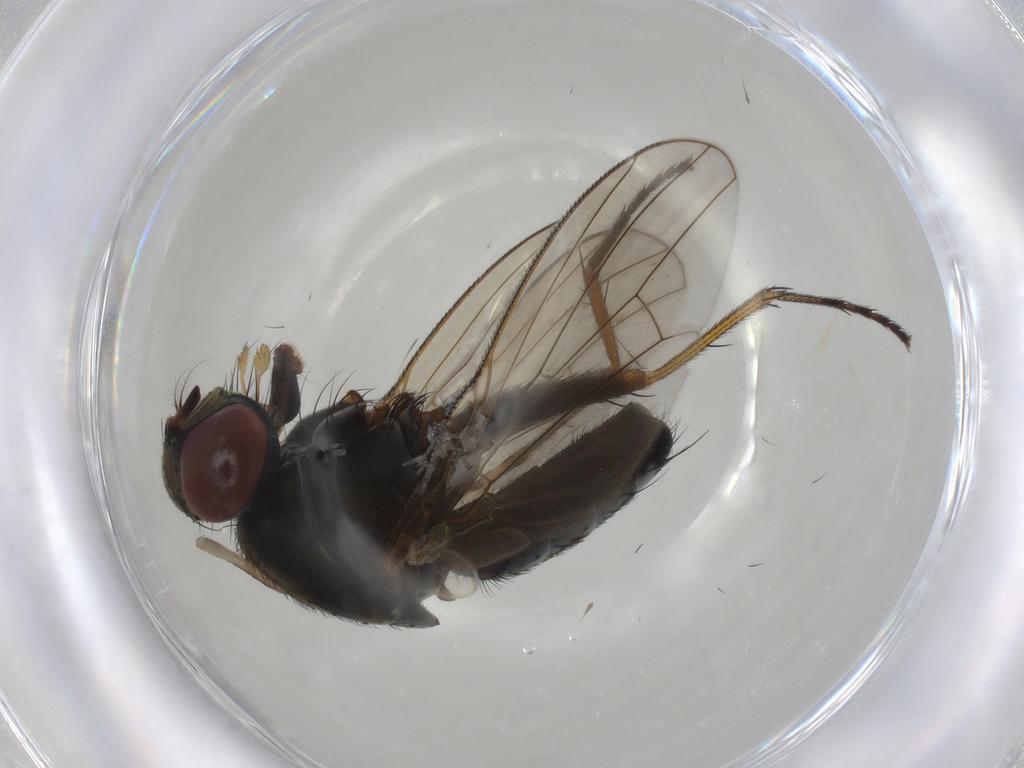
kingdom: Animalia
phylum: Arthropoda
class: Insecta
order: Diptera
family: Muscidae
